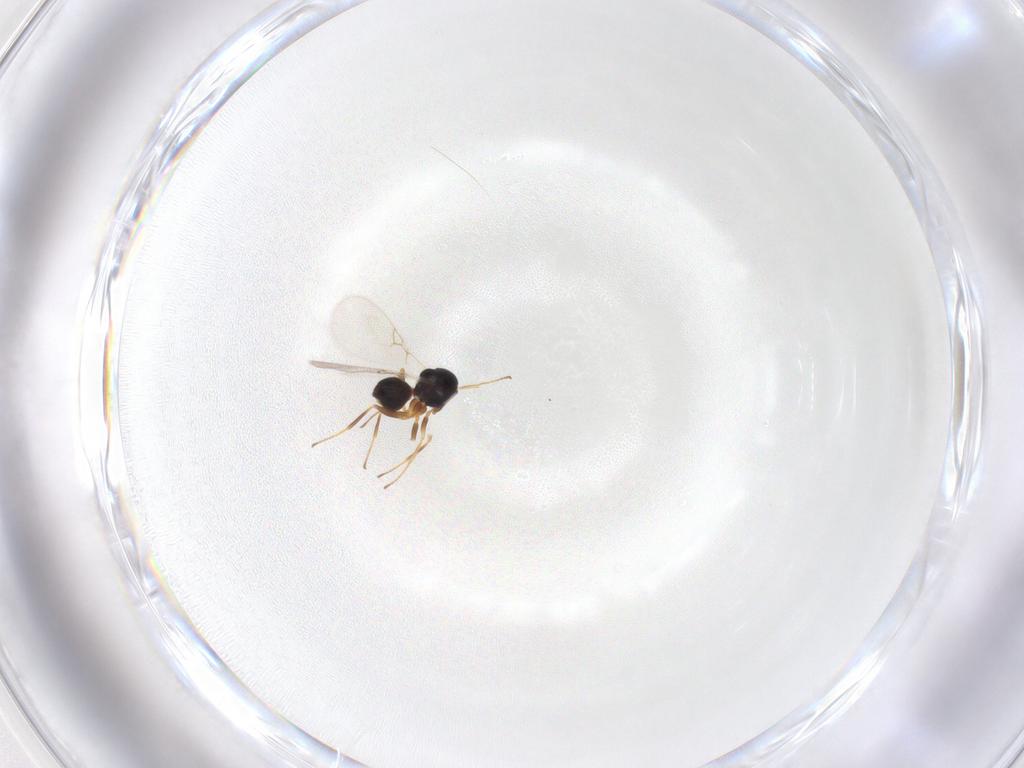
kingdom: Animalia
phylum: Arthropoda
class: Insecta
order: Hymenoptera
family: Figitidae
